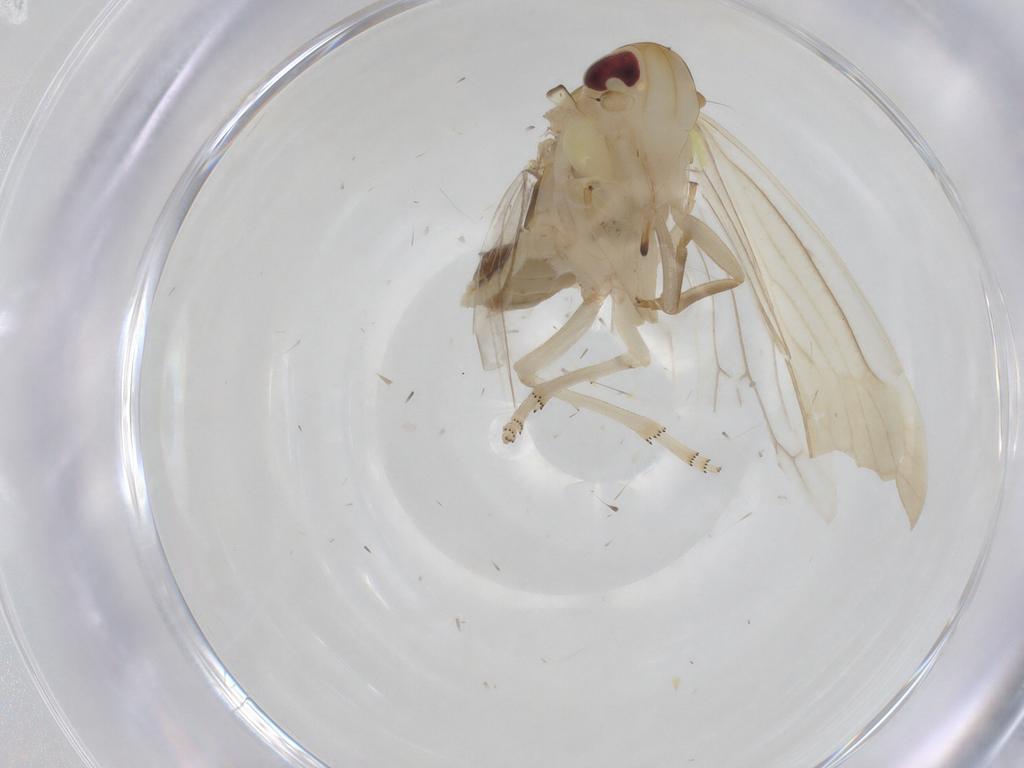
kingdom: Animalia
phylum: Arthropoda
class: Insecta
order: Hemiptera
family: Achilidae
